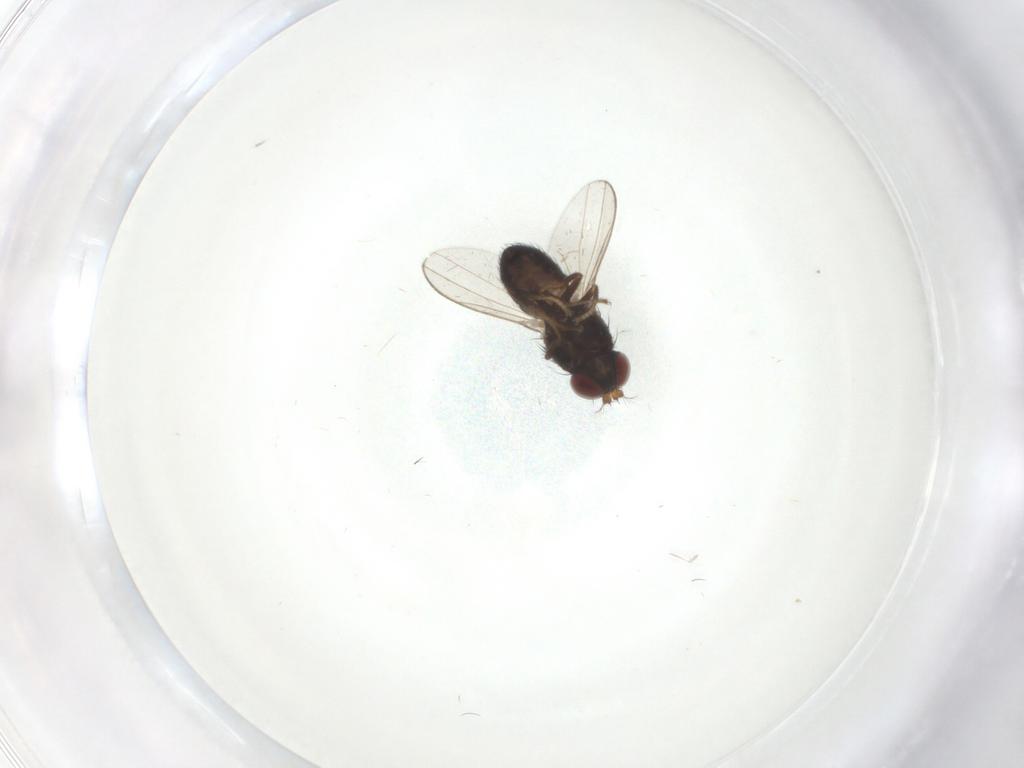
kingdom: Animalia
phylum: Arthropoda
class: Insecta
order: Diptera
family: Ephydridae
